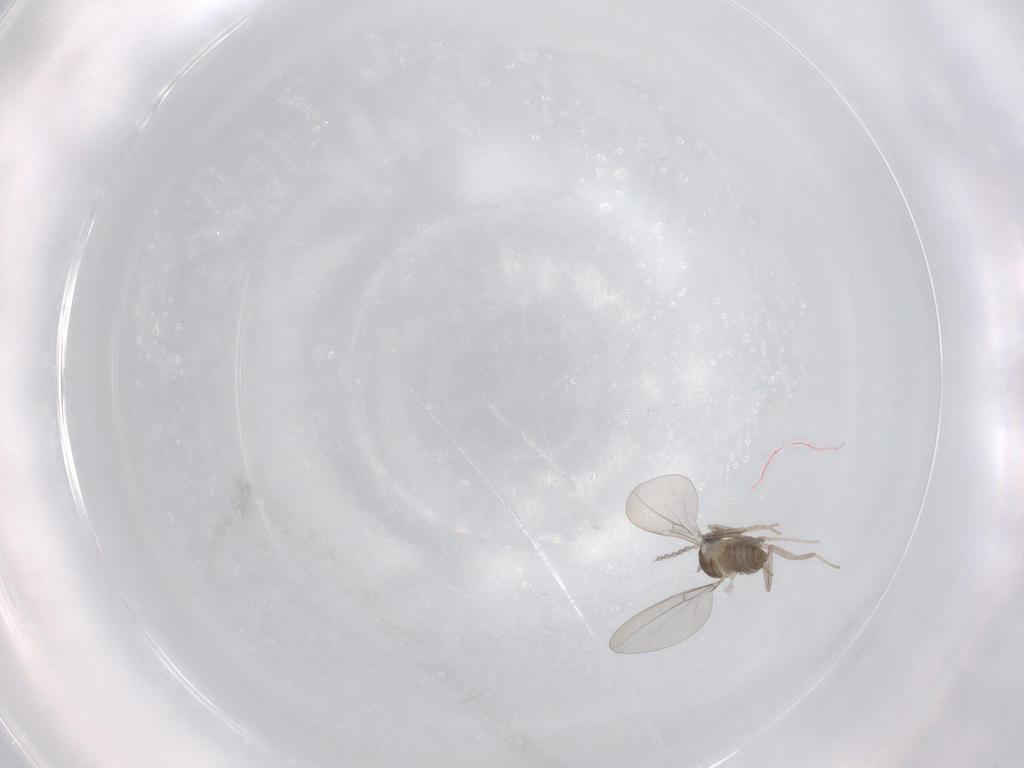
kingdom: Animalia
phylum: Arthropoda
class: Insecta
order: Diptera
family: Cecidomyiidae
